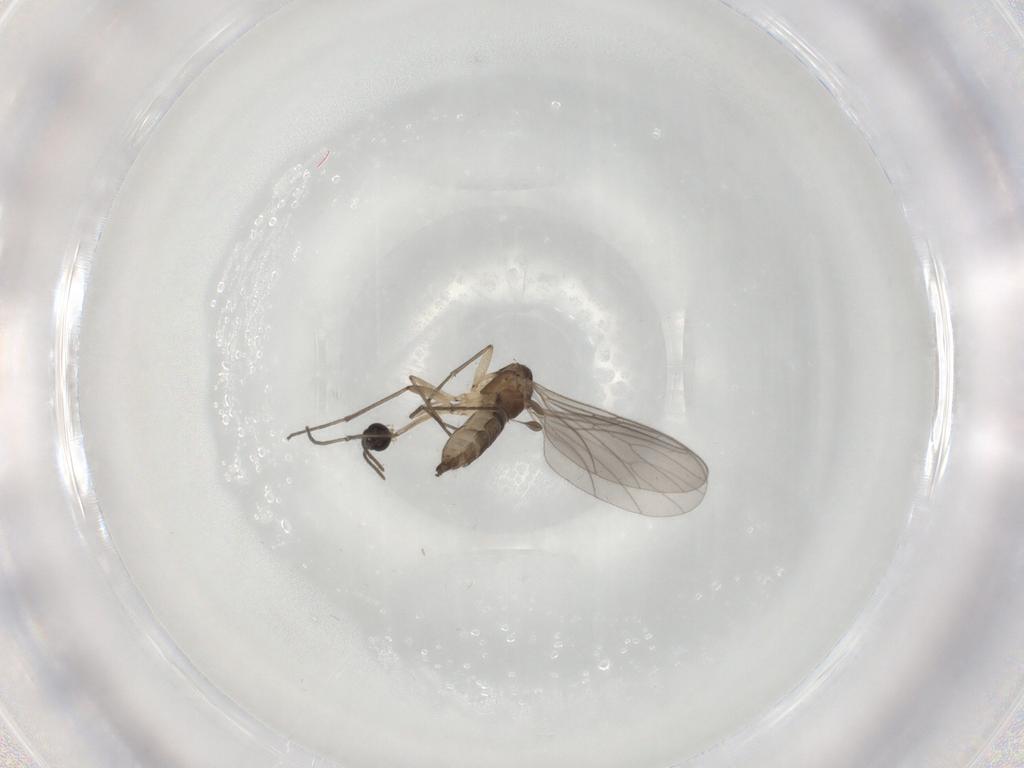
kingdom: Animalia
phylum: Arthropoda
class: Insecta
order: Diptera
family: Sciaridae
